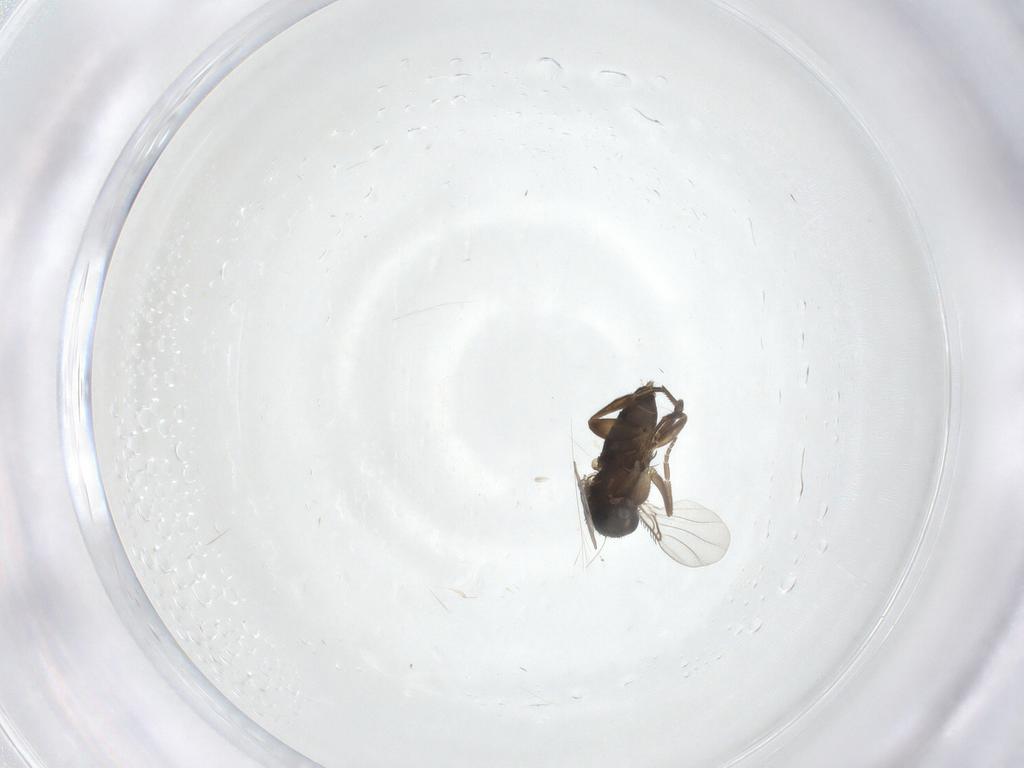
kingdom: Animalia
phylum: Arthropoda
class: Insecta
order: Diptera
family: Phoridae
